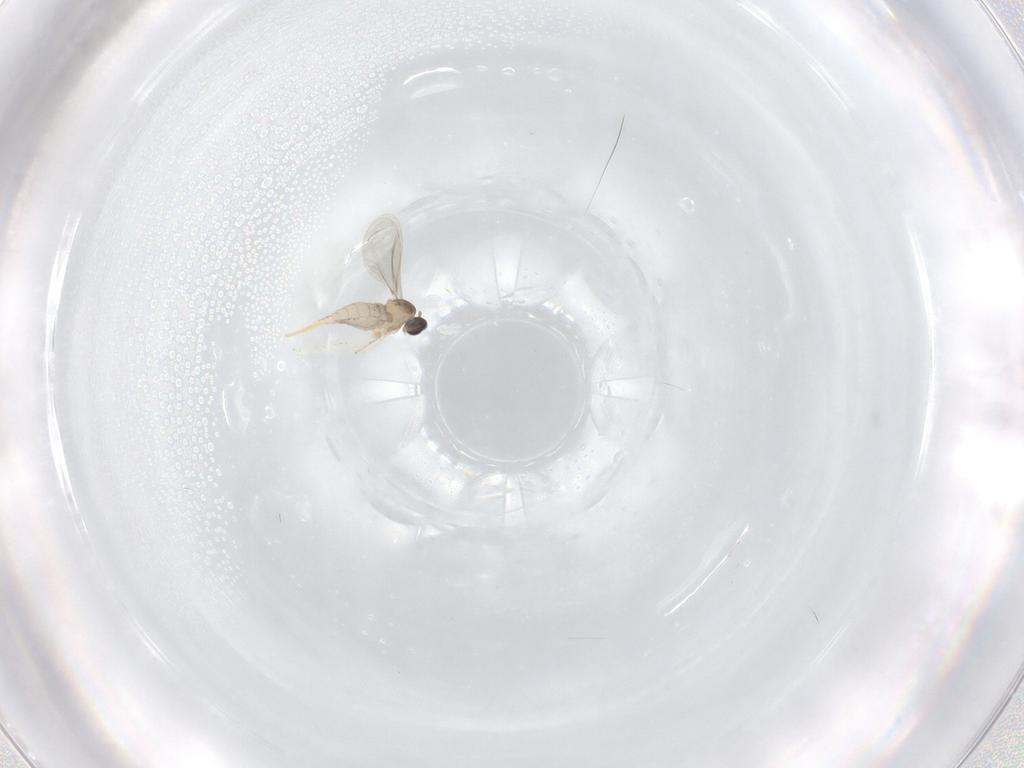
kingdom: Animalia
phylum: Arthropoda
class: Insecta
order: Diptera
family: Cecidomyiidae
